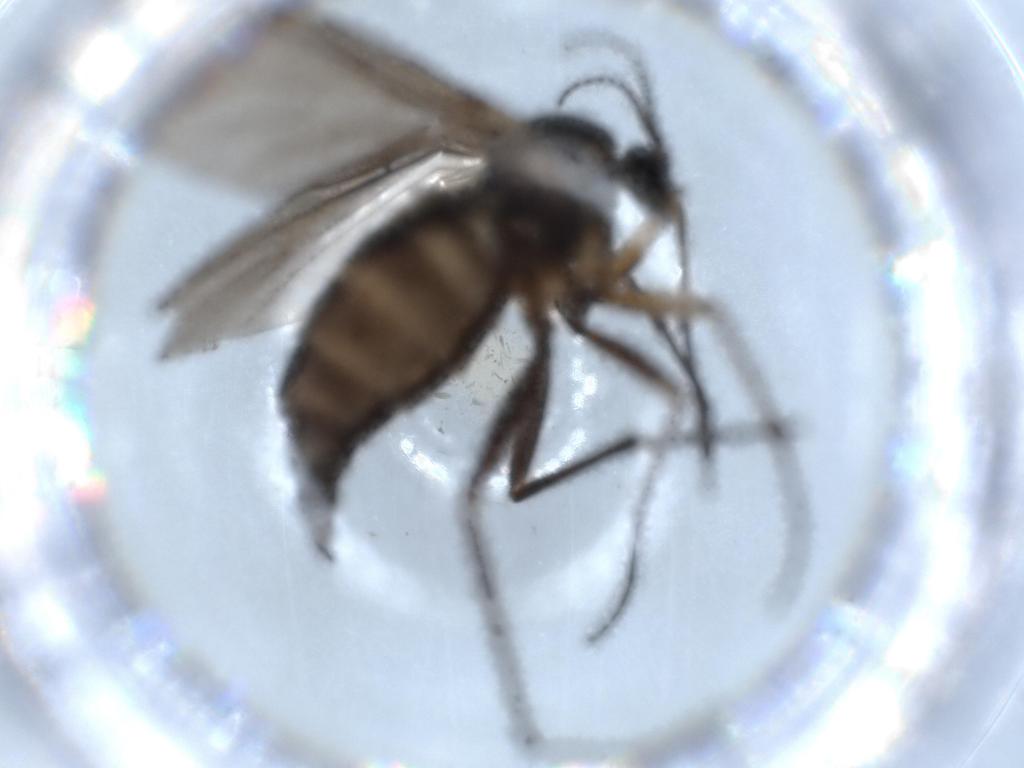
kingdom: Animalia
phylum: Arthropoda
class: Insecta
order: Diptera
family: Sciaridae
